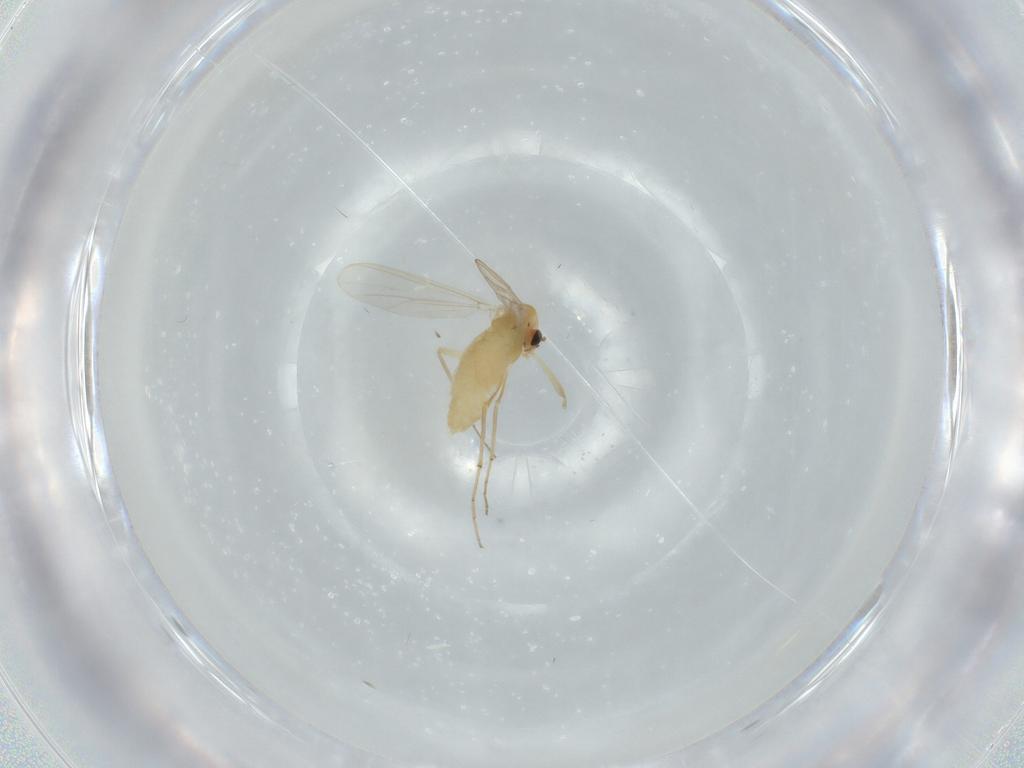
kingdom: Animalia
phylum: Arthropoda
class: Insecta
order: Diptera
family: Chironomidae
